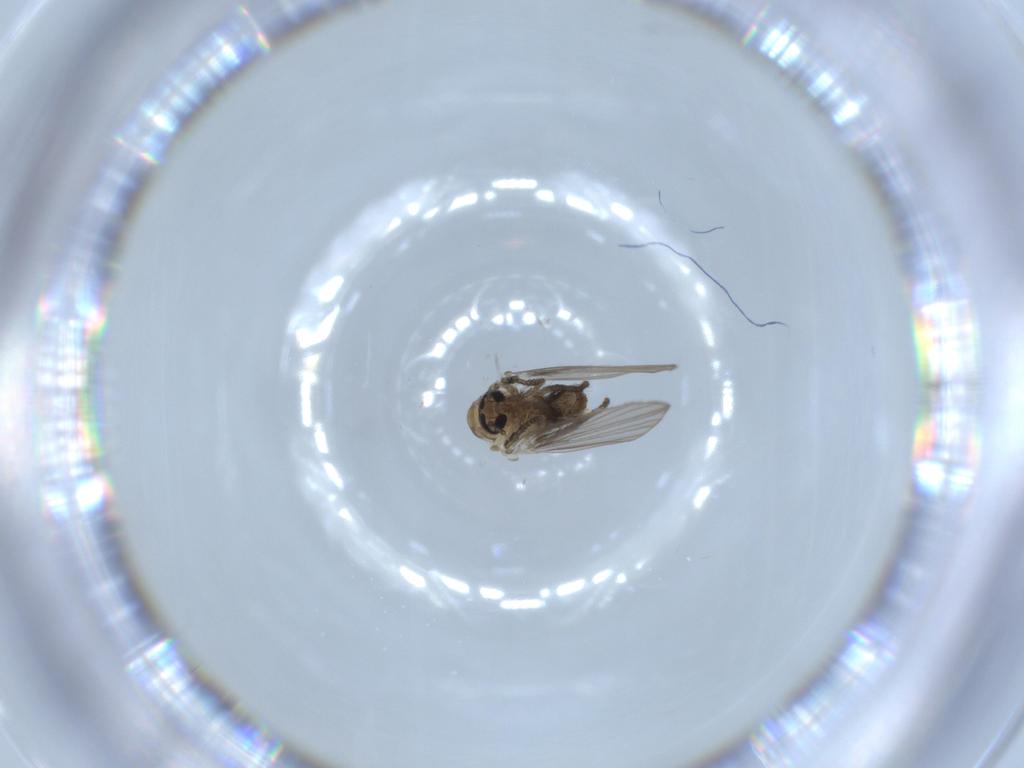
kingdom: Animalia
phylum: Arthropoda
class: Insecta
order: Diptera
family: Psychodidae
